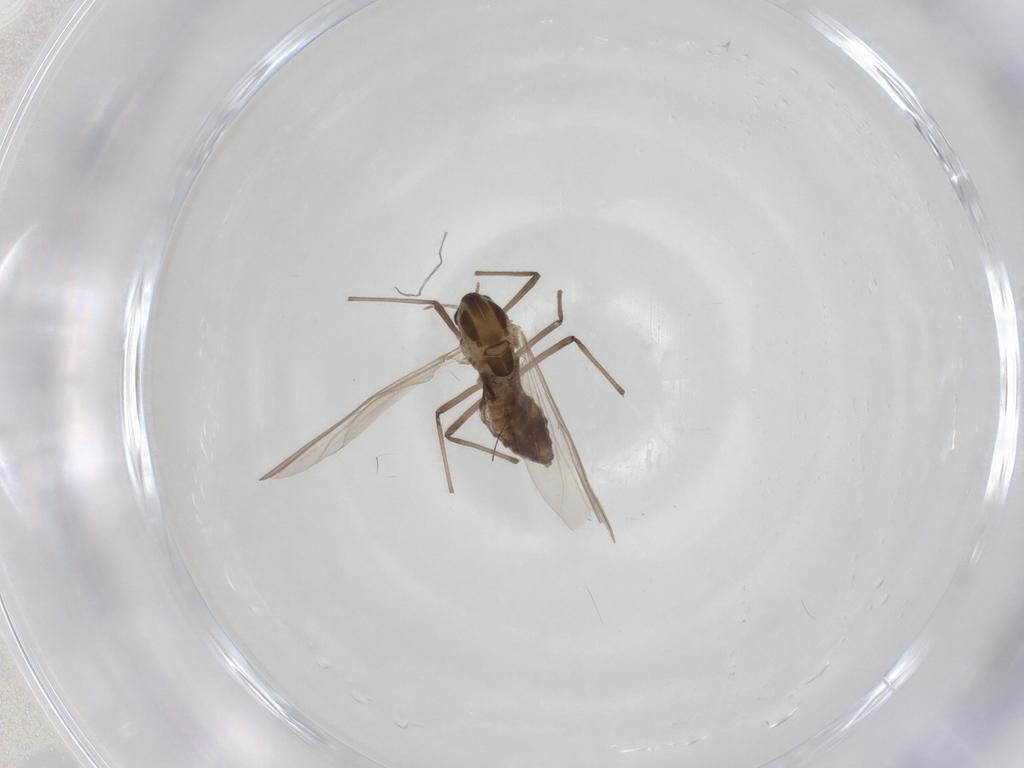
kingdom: Animalia
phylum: Arthropoda
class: Insecta
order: Diptera
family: Chironomidae
